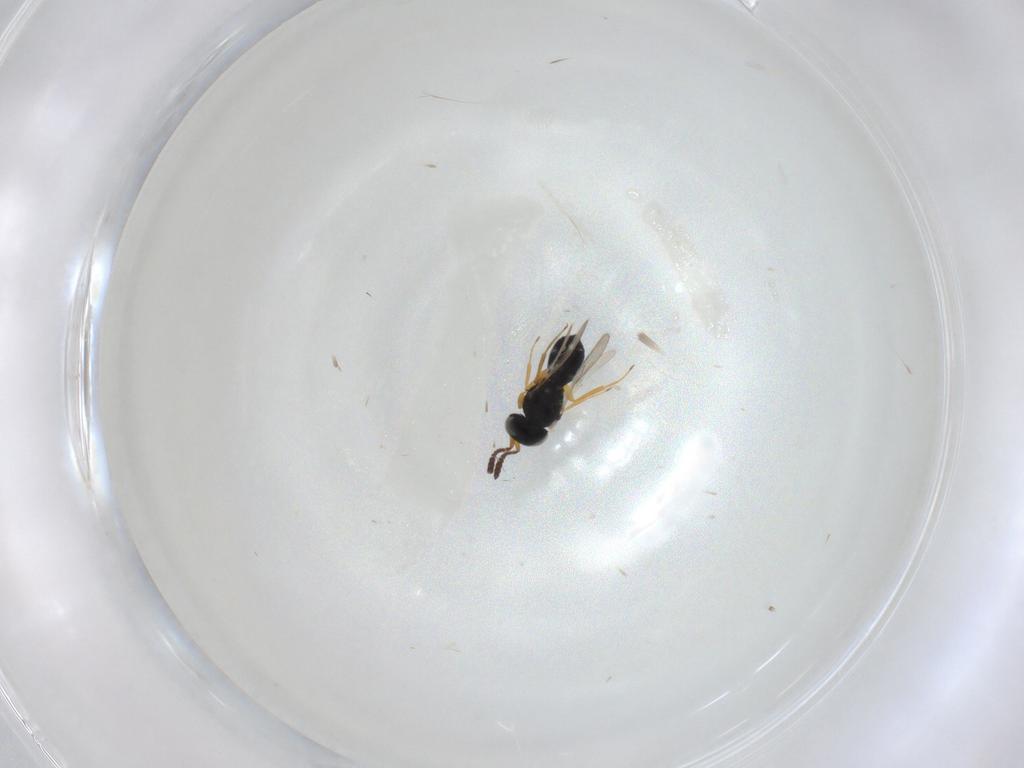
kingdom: Animalia
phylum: Arthropoda
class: Insecta
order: Hymenoptera
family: Scelionidae
